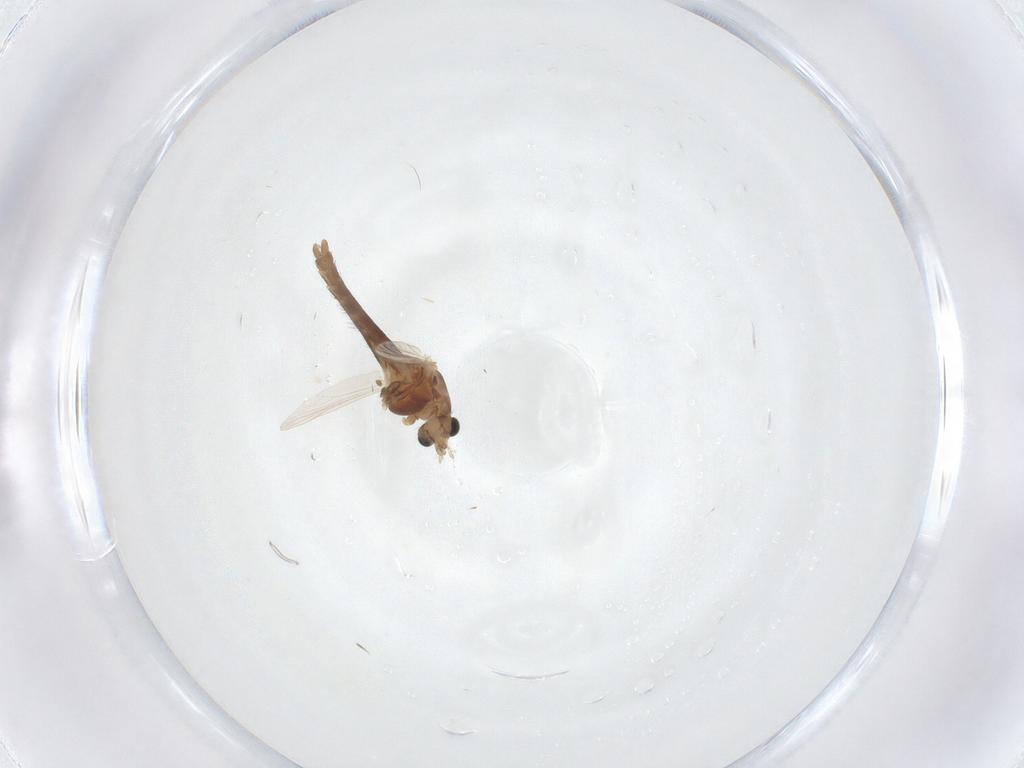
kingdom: Animalia
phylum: Arthropoda
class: Insecta
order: Diptera
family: Chironomidae
